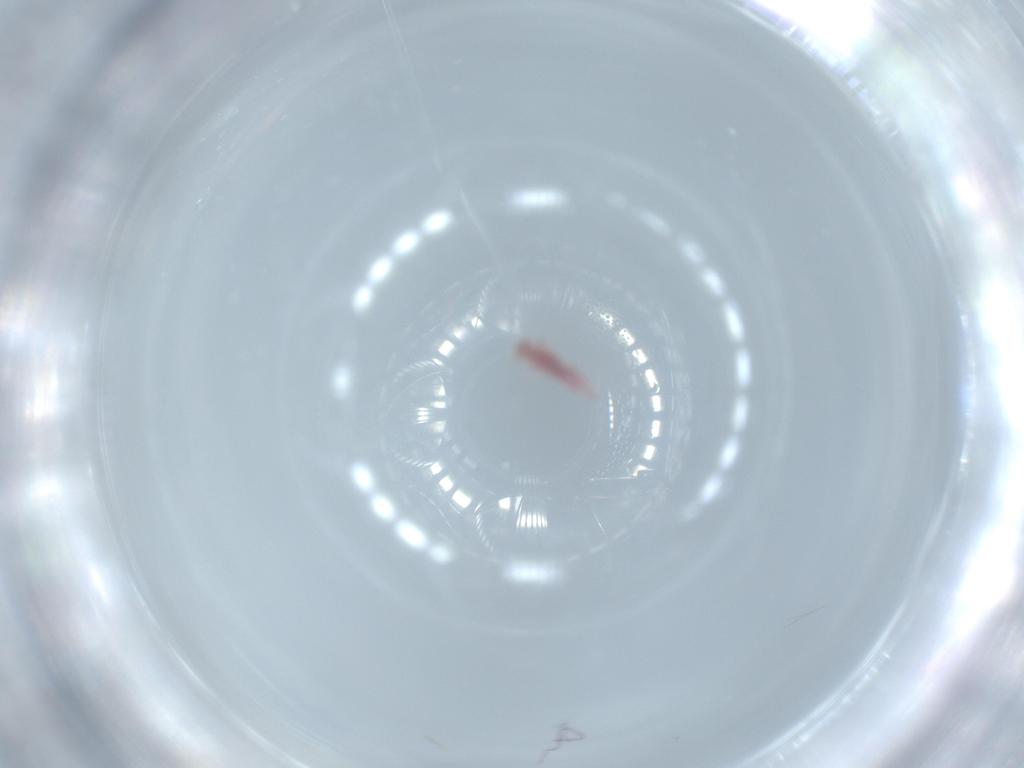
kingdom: Animalia
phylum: Arthropoda
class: Insecta
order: Neuroptera
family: Coniopterygidae
